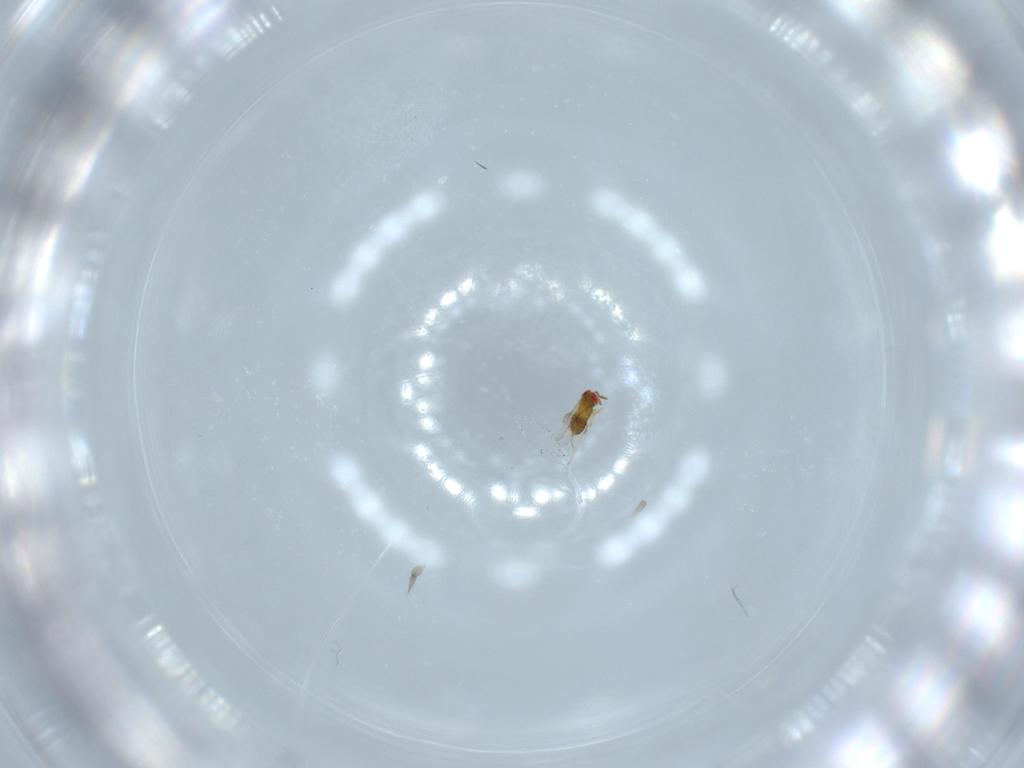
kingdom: Animalia
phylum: Arthropoda
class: Insecta
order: Hymenoptera
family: Trichogrammatidae
